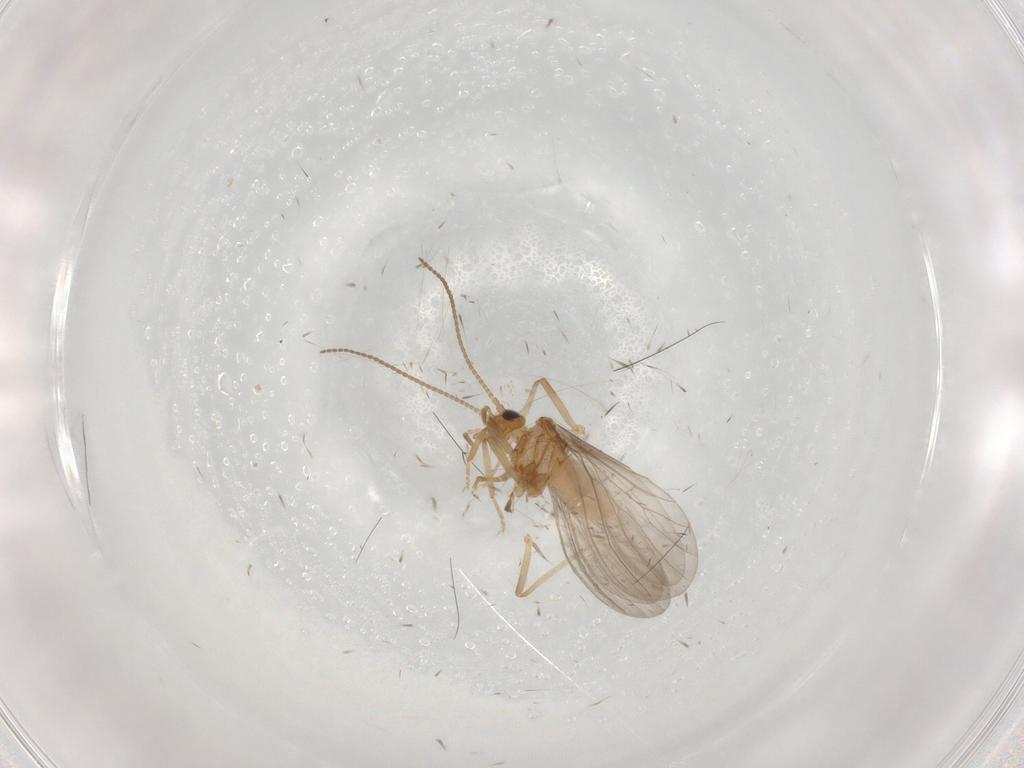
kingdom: Animalia
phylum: Arthropoda
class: Insecta
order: Neuroptera
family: Coniopterygidae
